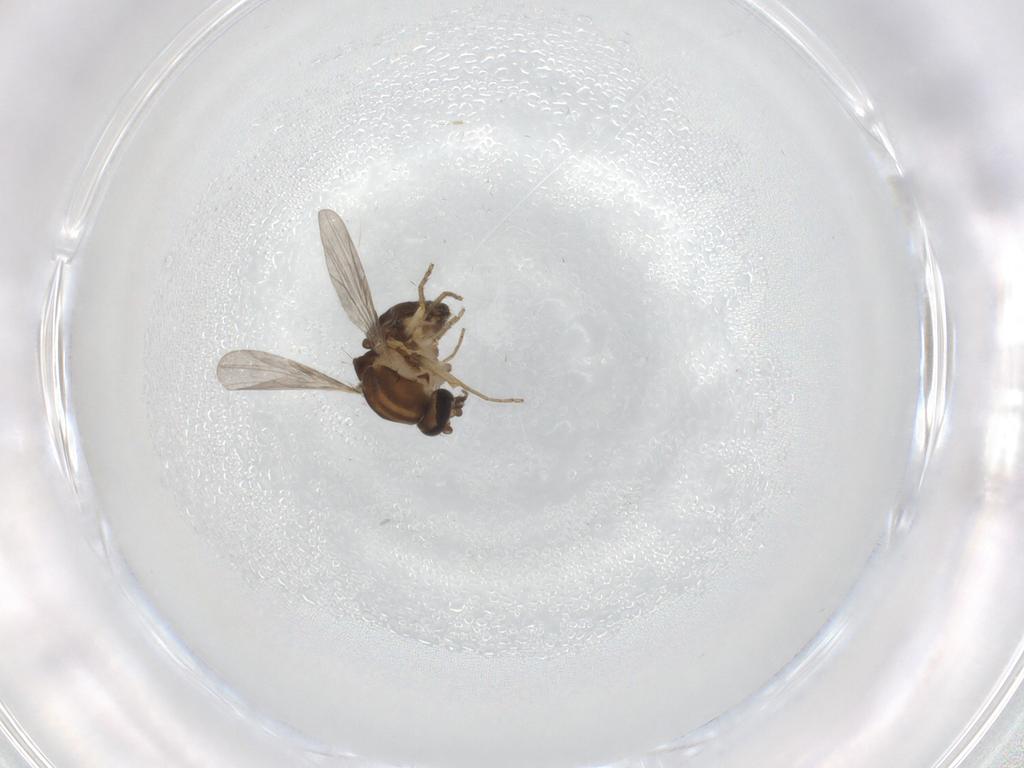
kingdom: Animalia
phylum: Arthropoda
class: Insecta
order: Diptera
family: Ceratopogonidae
